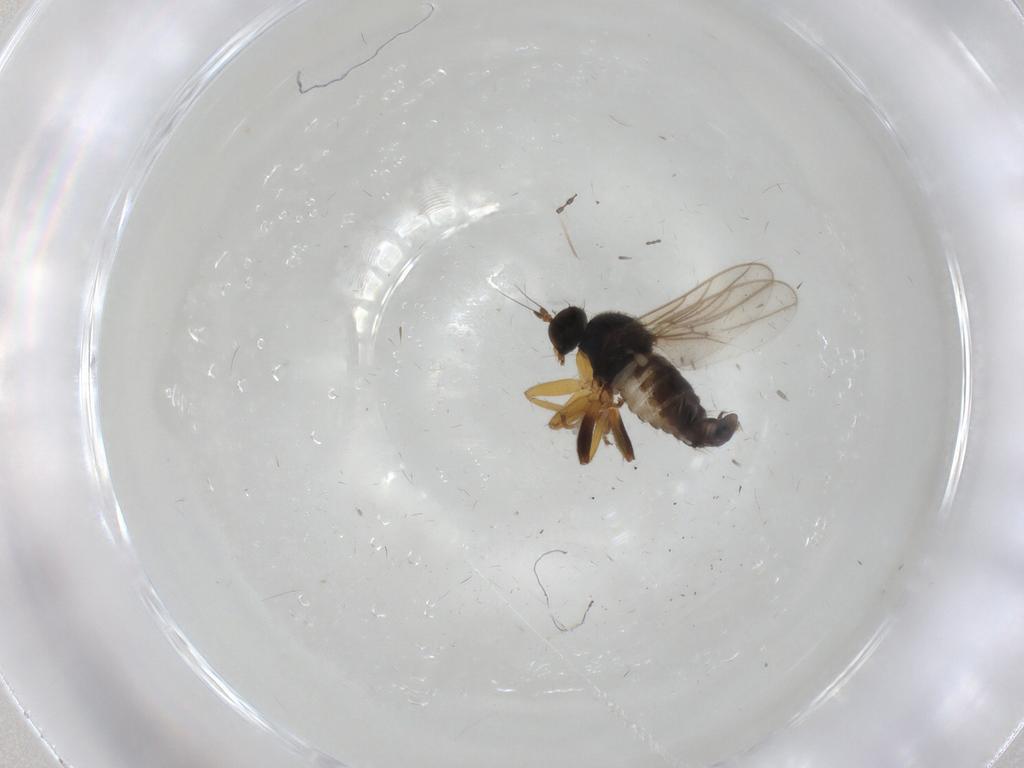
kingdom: Animalia
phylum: Arthropoda
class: Insecta
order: Diptera
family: Hybotidae
